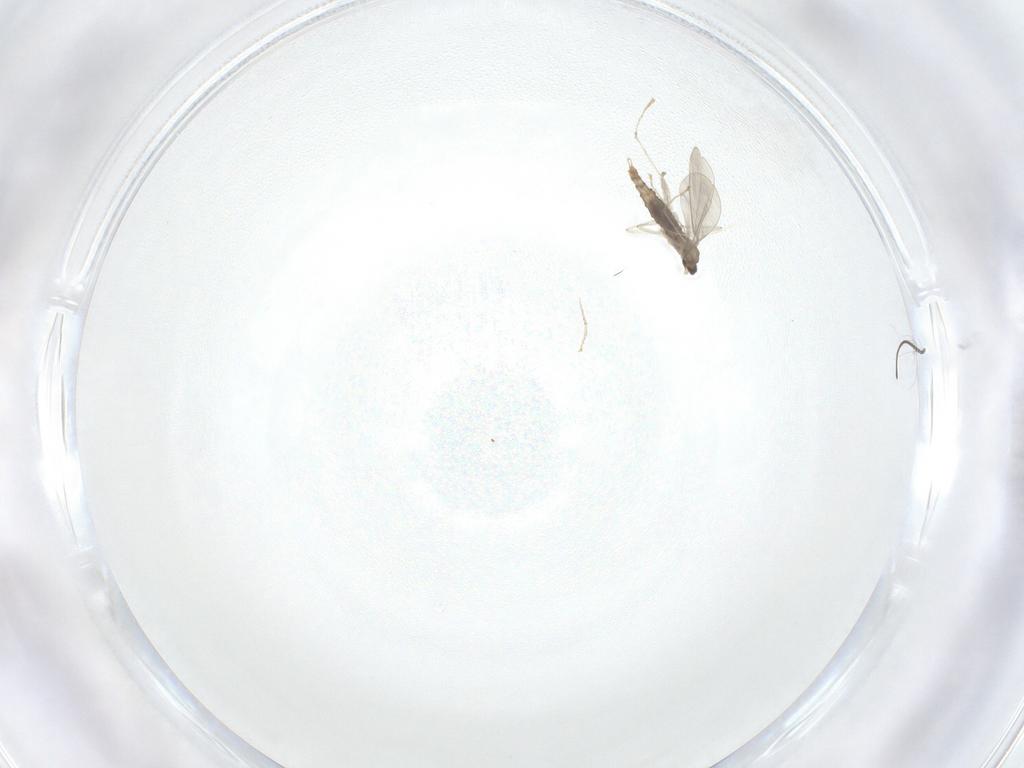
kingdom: Animalia
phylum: Arthropoda
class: Insecta
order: Diptera
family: Cecidomyiidae
